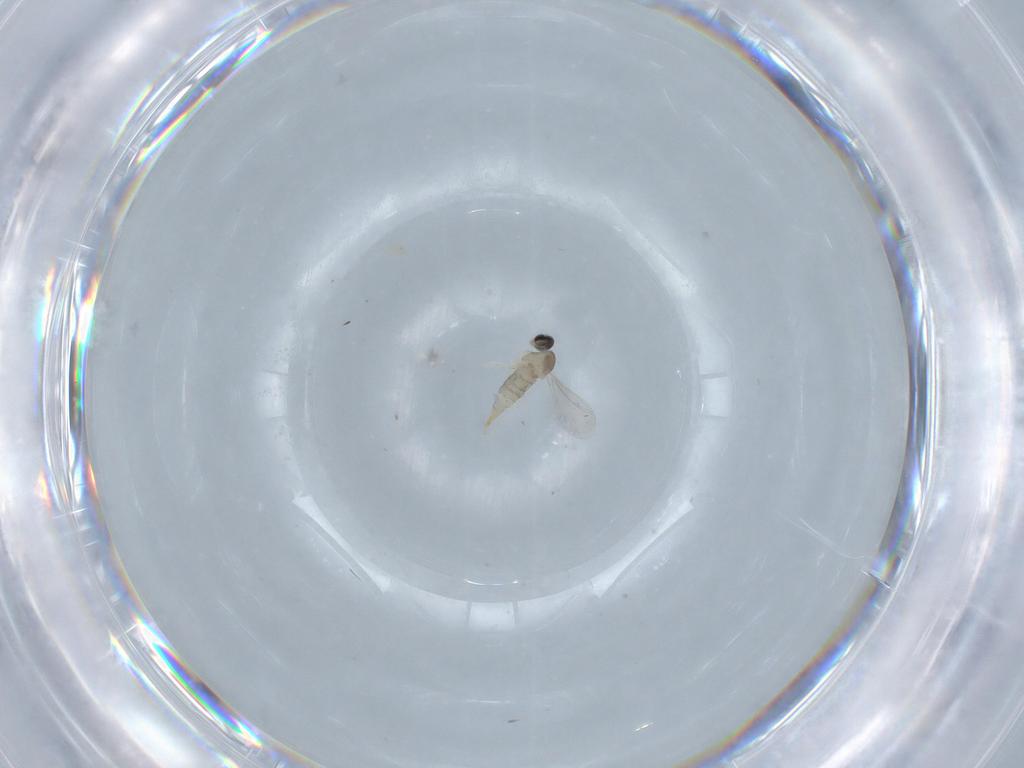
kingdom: Animalia
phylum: Arthropoda
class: Insecta
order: Diptera
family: Cecidomyiidae
